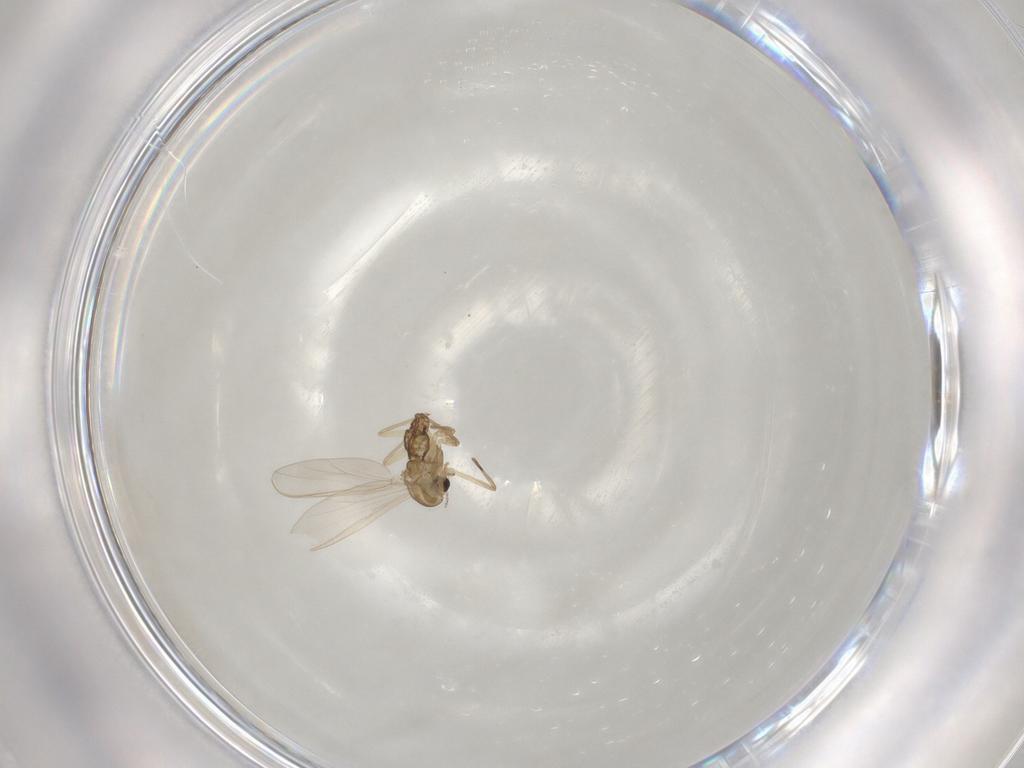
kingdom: Animalia
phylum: Arthropoda
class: Insecta
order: Diptera
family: Chironomidae
